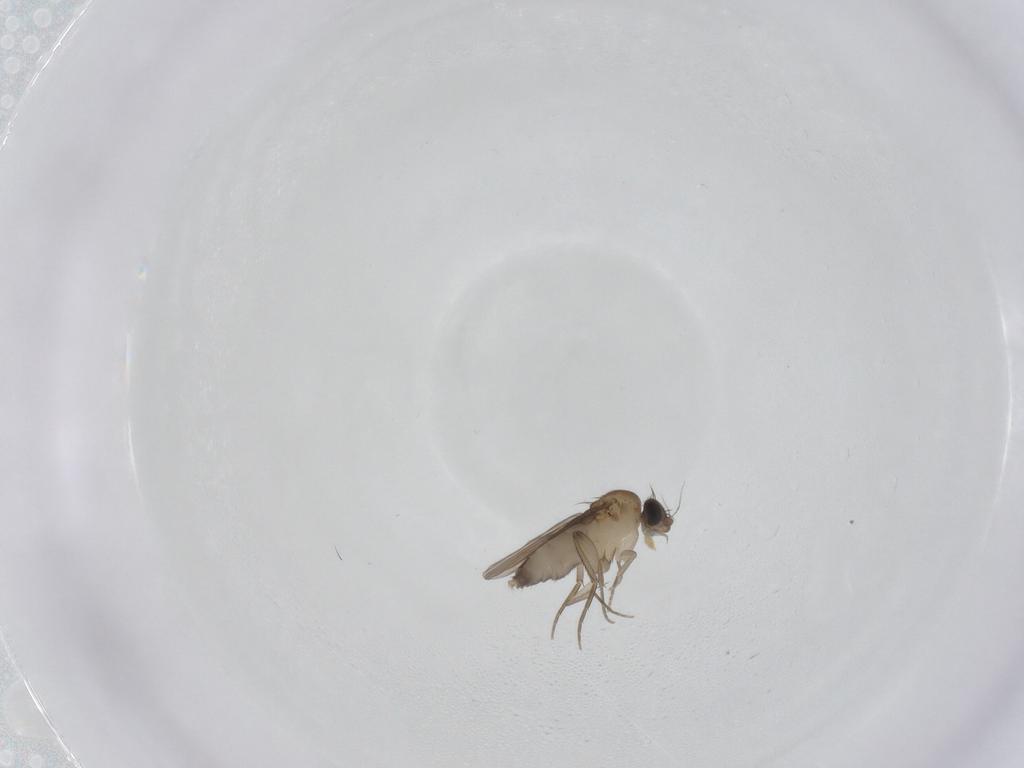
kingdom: Animalia
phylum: Arthropoda
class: Insecta
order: Diptera
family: Phoridae
